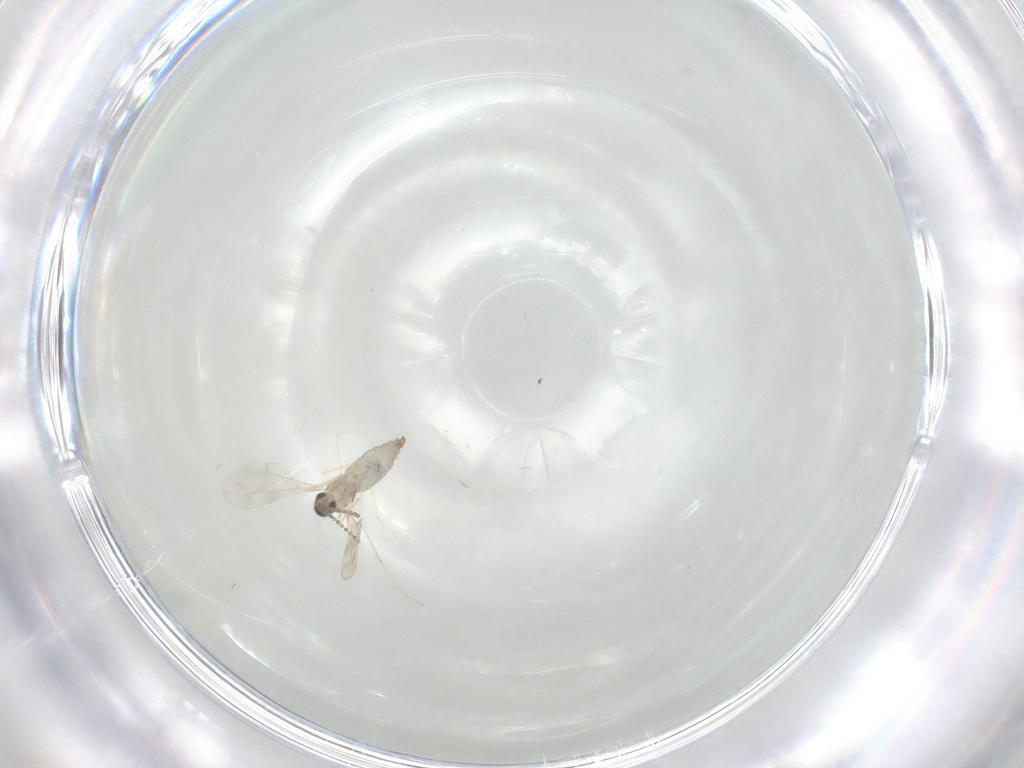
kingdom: Animalia
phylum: Arthropoda
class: Insecta
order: Diptera
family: Cecidomyiidae
